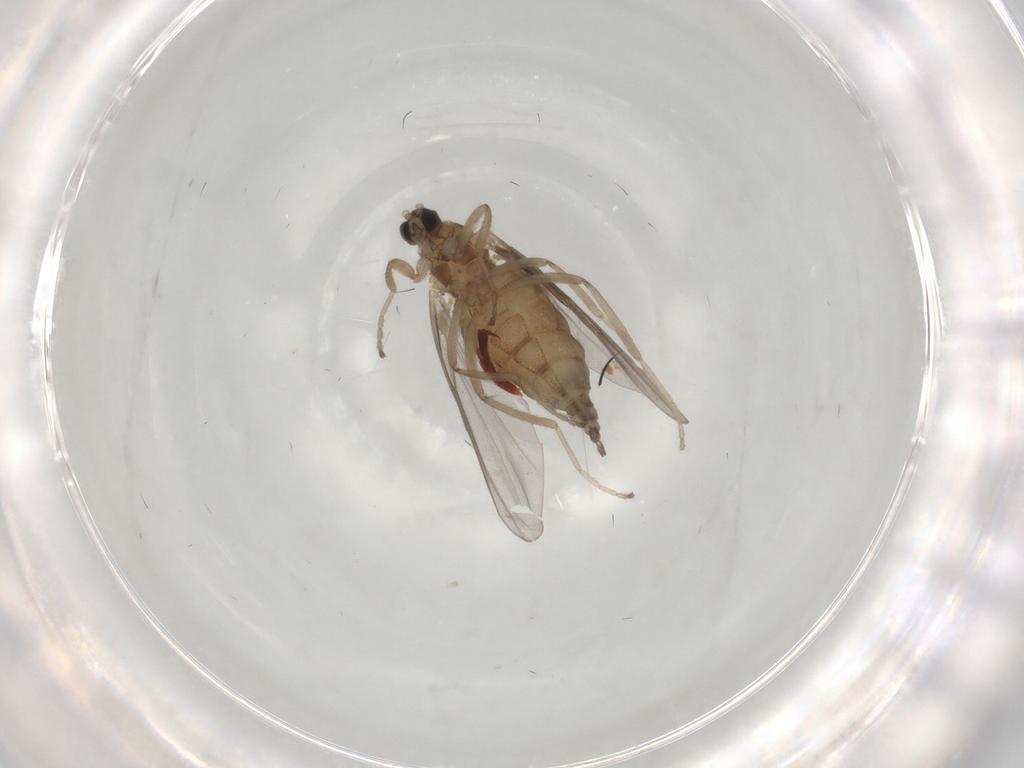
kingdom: Animalia
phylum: Arthropoda
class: Insecta
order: Diptera
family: Cecidomyiidae
